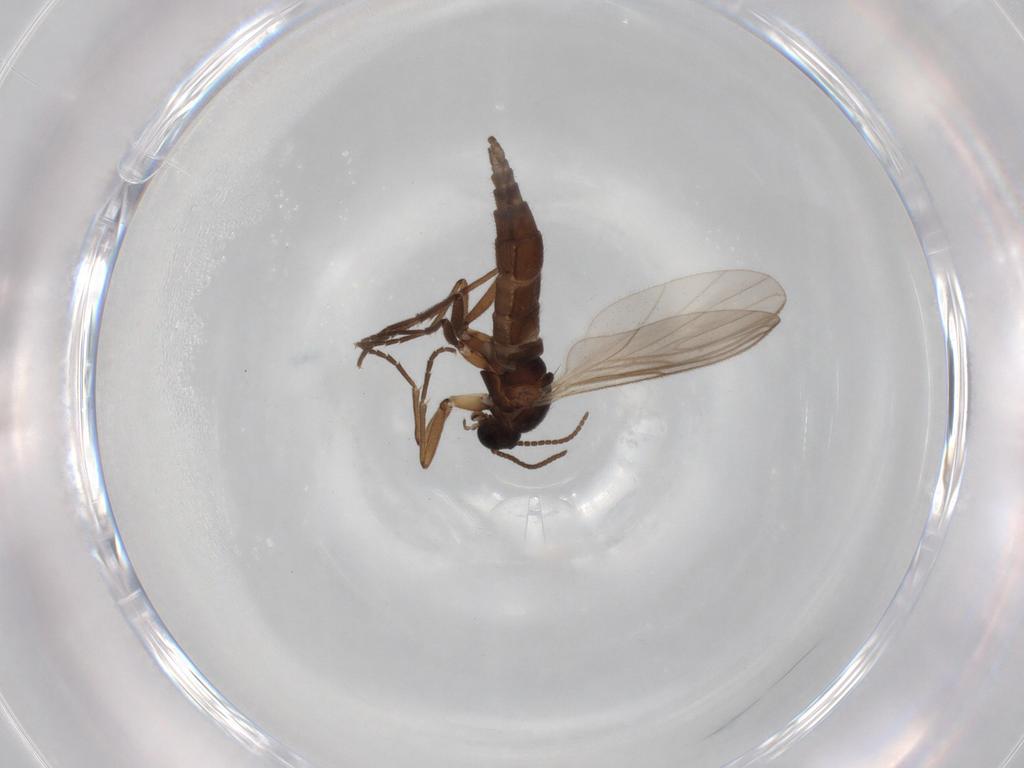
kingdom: Animalia
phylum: Arthropoda
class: Insecta
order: Diptera
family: Sciaridae
